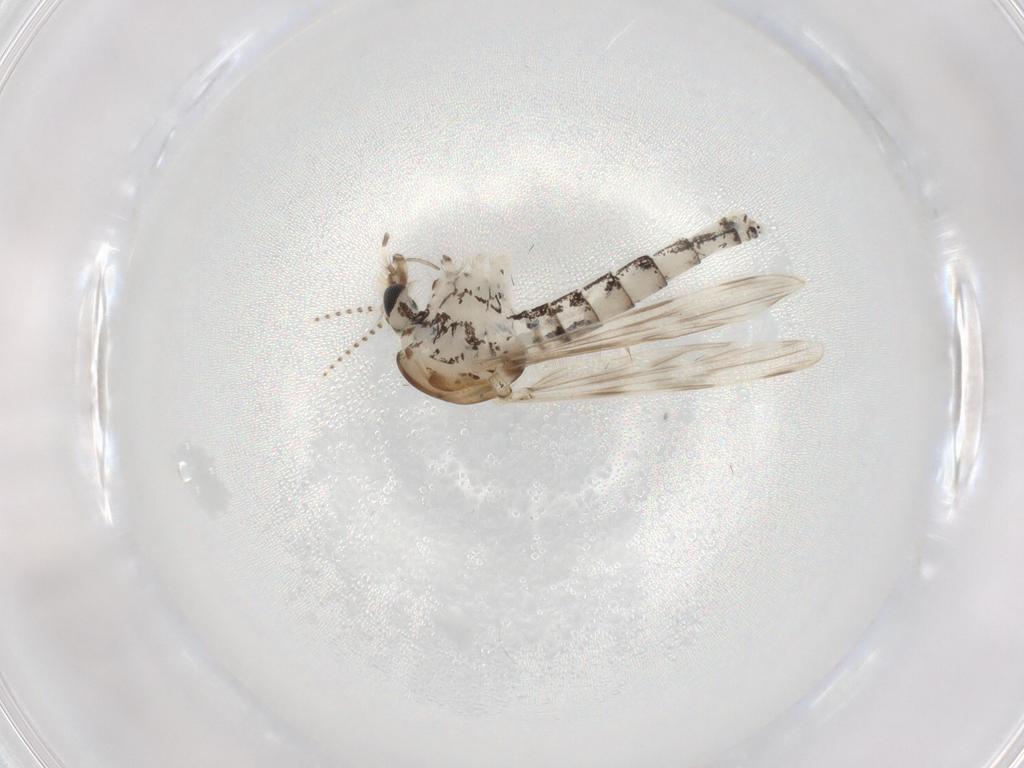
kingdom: Animalia
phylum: Arthropoda
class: Insecta
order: Diptera
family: Cecidomyiidae
